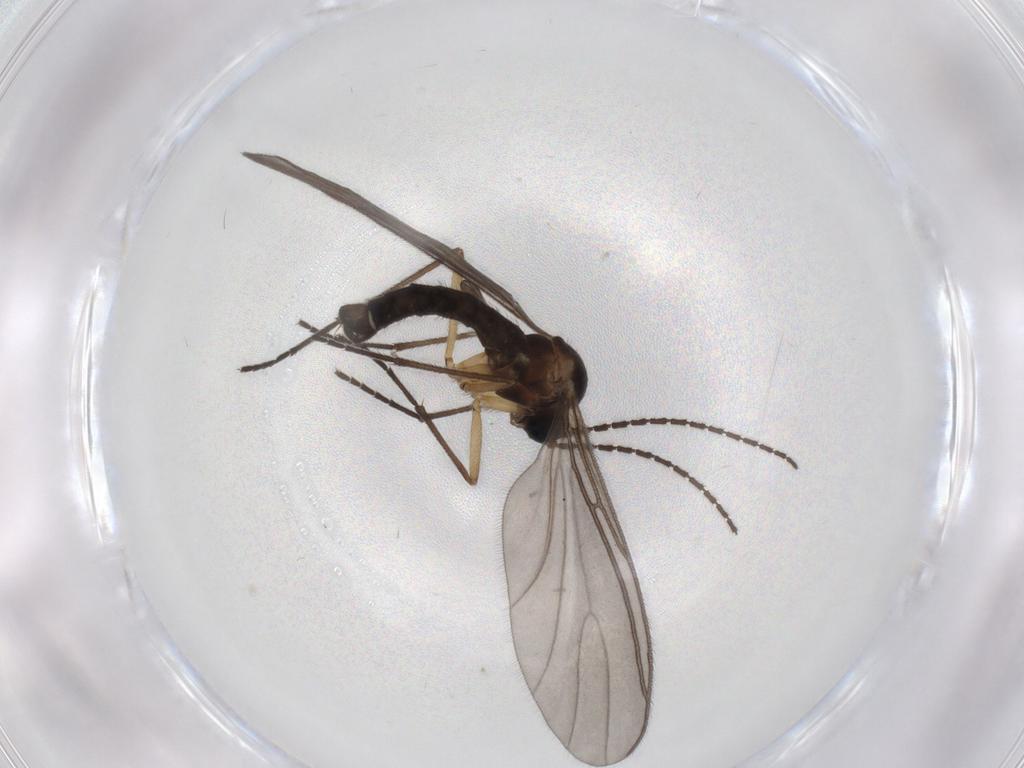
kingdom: Animalia
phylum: Arthropoda
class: Insecta
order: Diptera
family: Sciaridae
